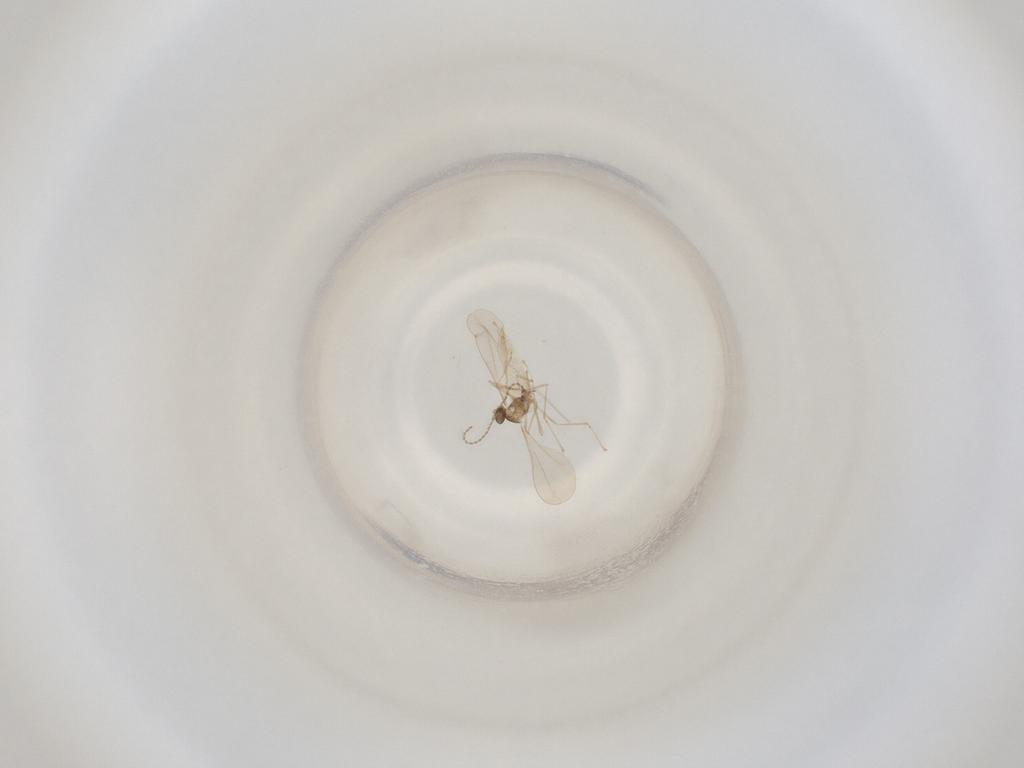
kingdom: Animalia
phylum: Arthropoda
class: Insecta
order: Diptera
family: Cecidomyiidae
